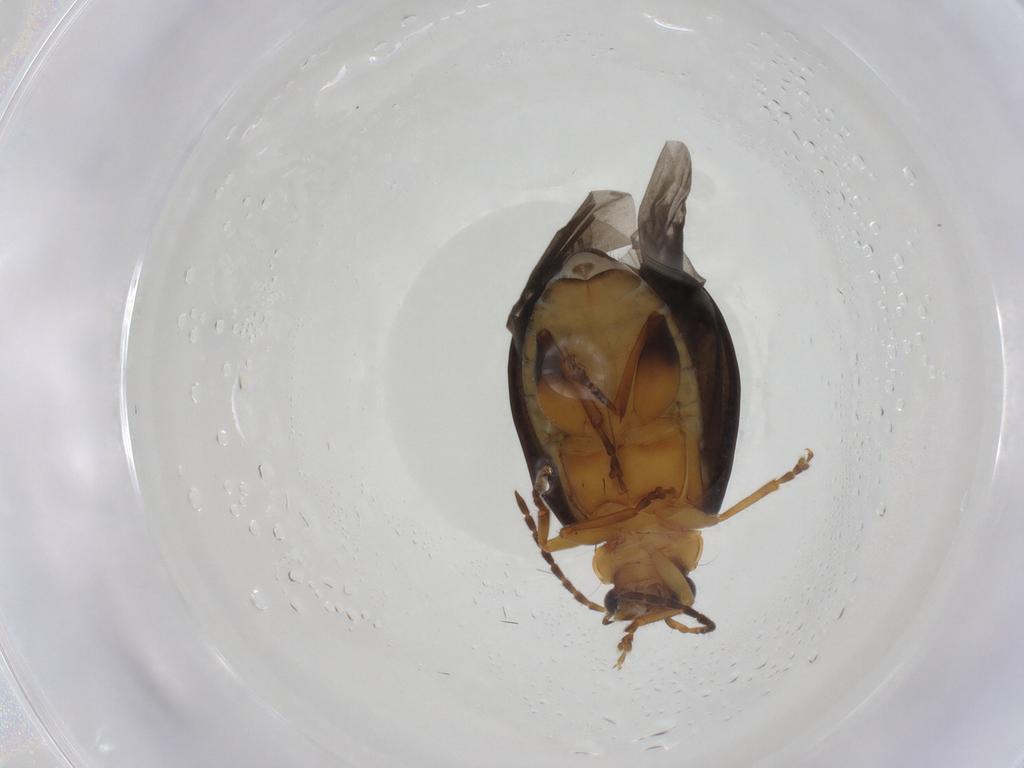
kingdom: Animalia
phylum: Arthropoda
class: Insecta
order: Coleoptera
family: Chrysomelidae
